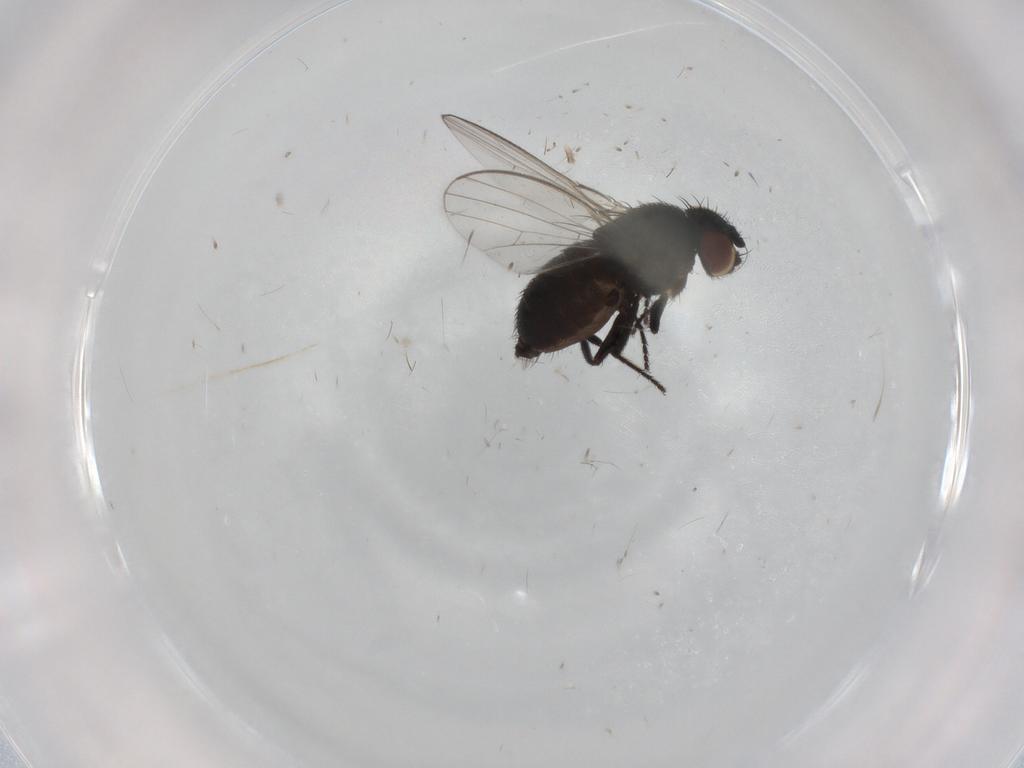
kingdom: Animalia
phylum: Arthropoda
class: Insecta
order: Diptera
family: Milichiidae
